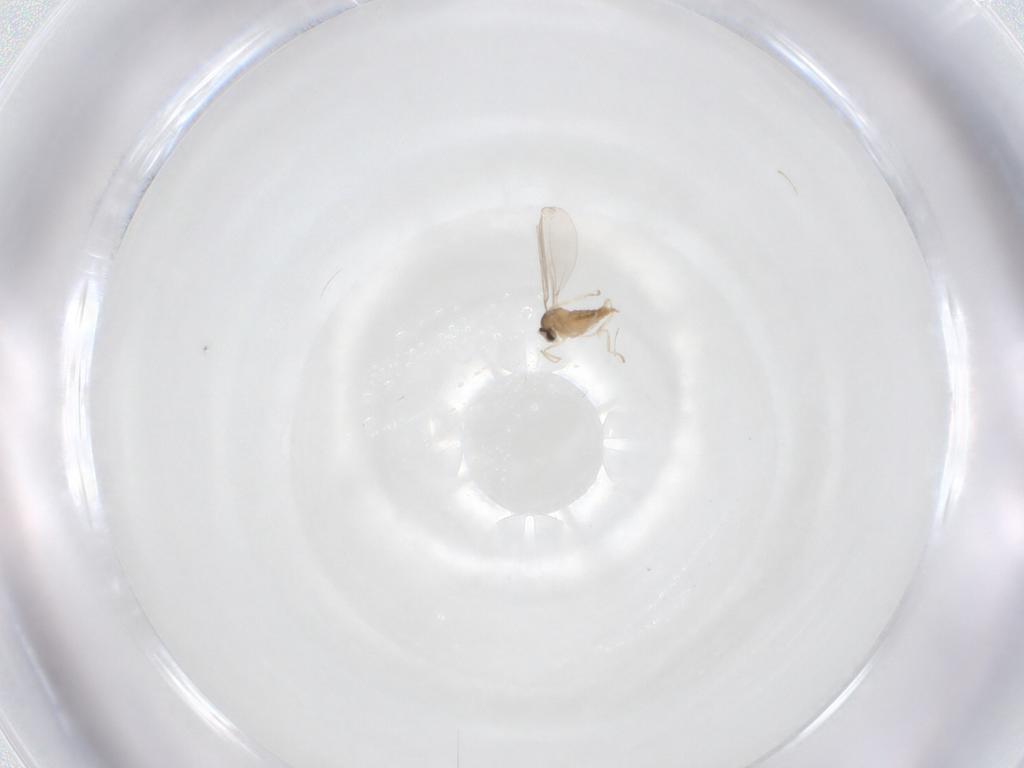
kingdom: Animalia
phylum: Arthropoda
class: Insecta
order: Diptera
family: Cecidomyiidae
